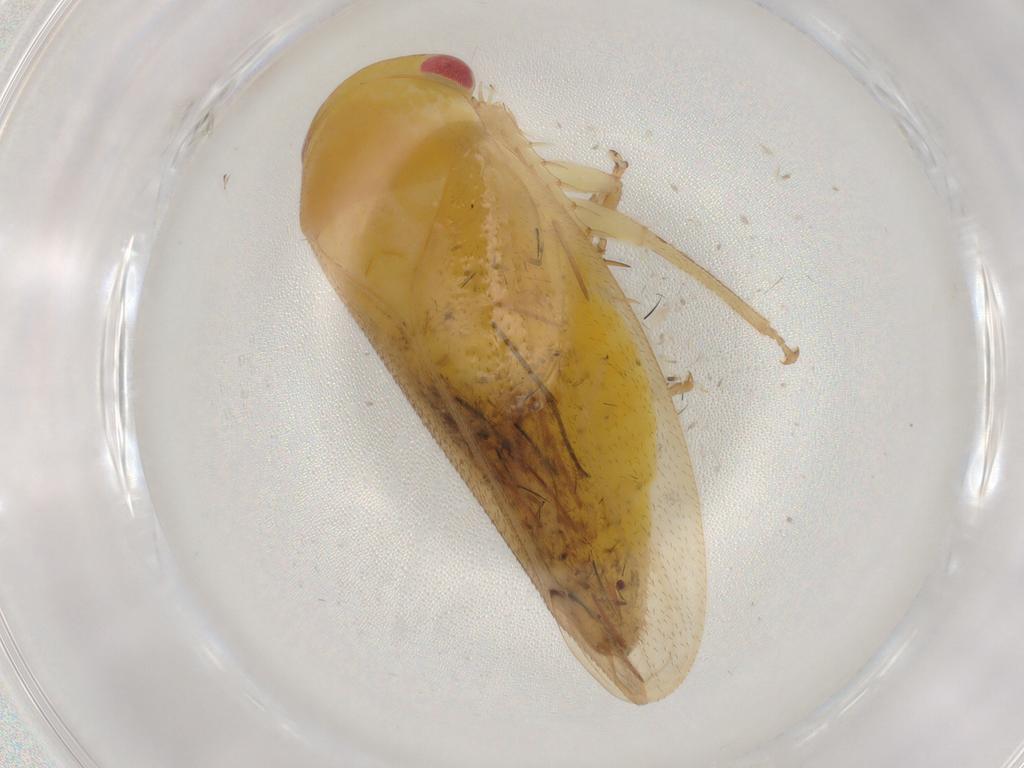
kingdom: Animalia
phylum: Arthropoda
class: Insecta
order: Hemiptera
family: Cicadellidae
